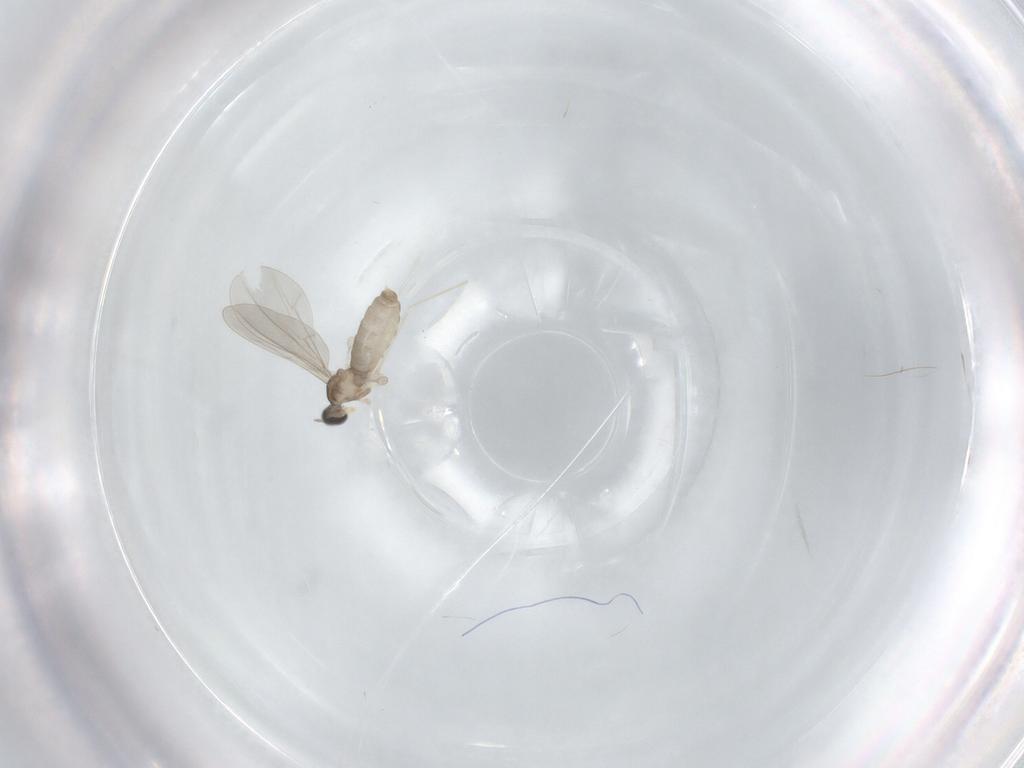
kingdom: Animalia
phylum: Arthropoda
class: Insecta
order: Diptera
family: Cecidomyiidae
